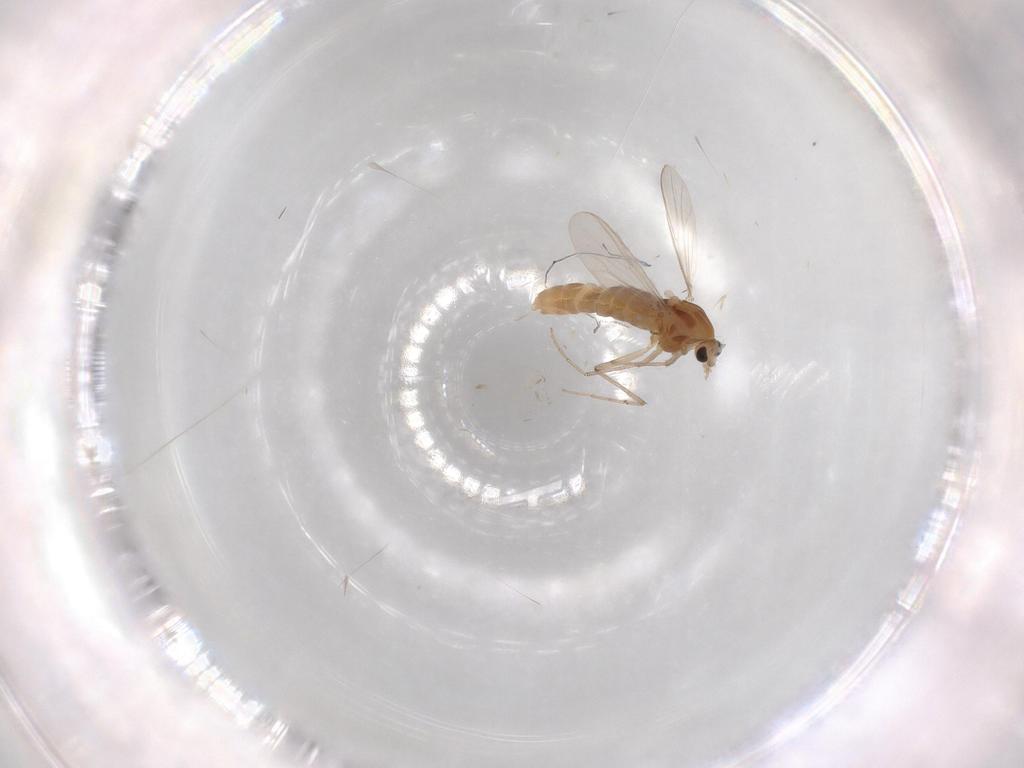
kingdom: Animalia
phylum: Arthropoda
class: Insecta
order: Diptera
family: Chironomidae
